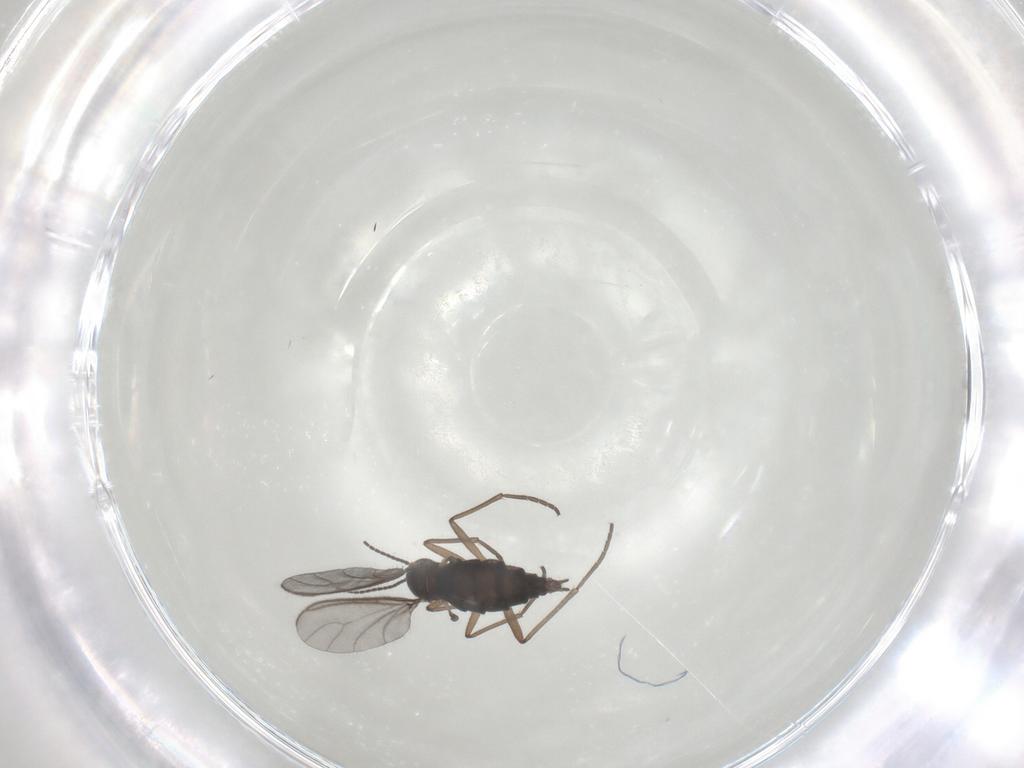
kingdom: Animalia
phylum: Arthropoda
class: Insecta
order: Diptera
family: Sciaridae
